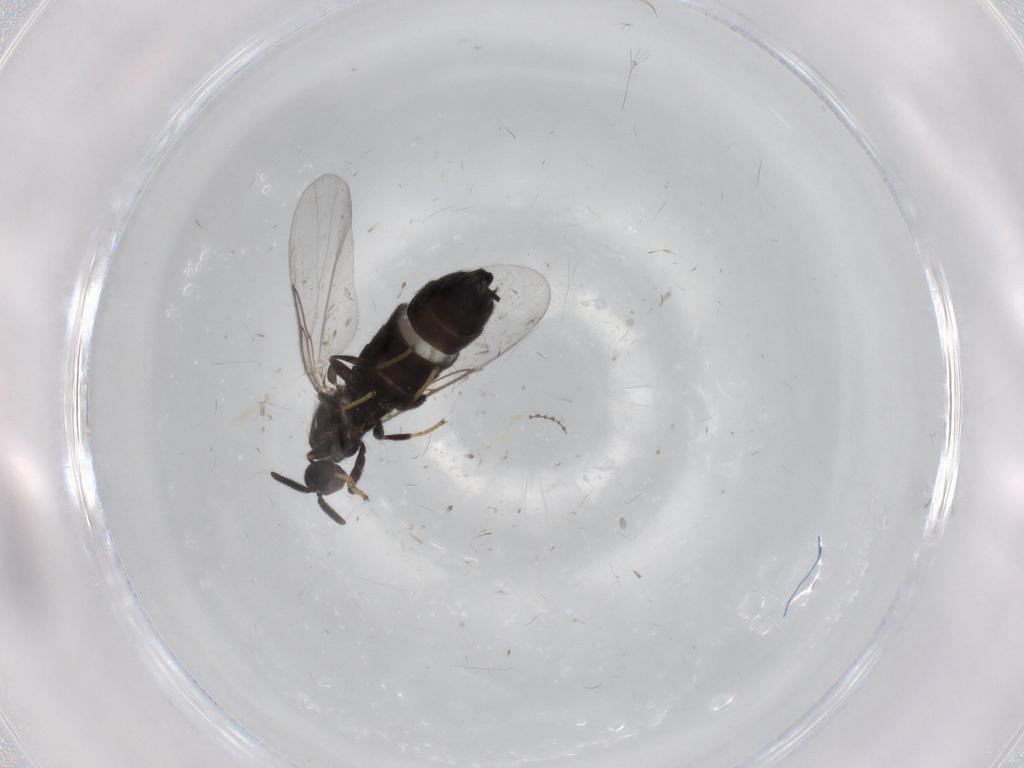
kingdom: Animalia
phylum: Arthropoda
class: Insecta
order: Diptera
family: Scatopsidae
